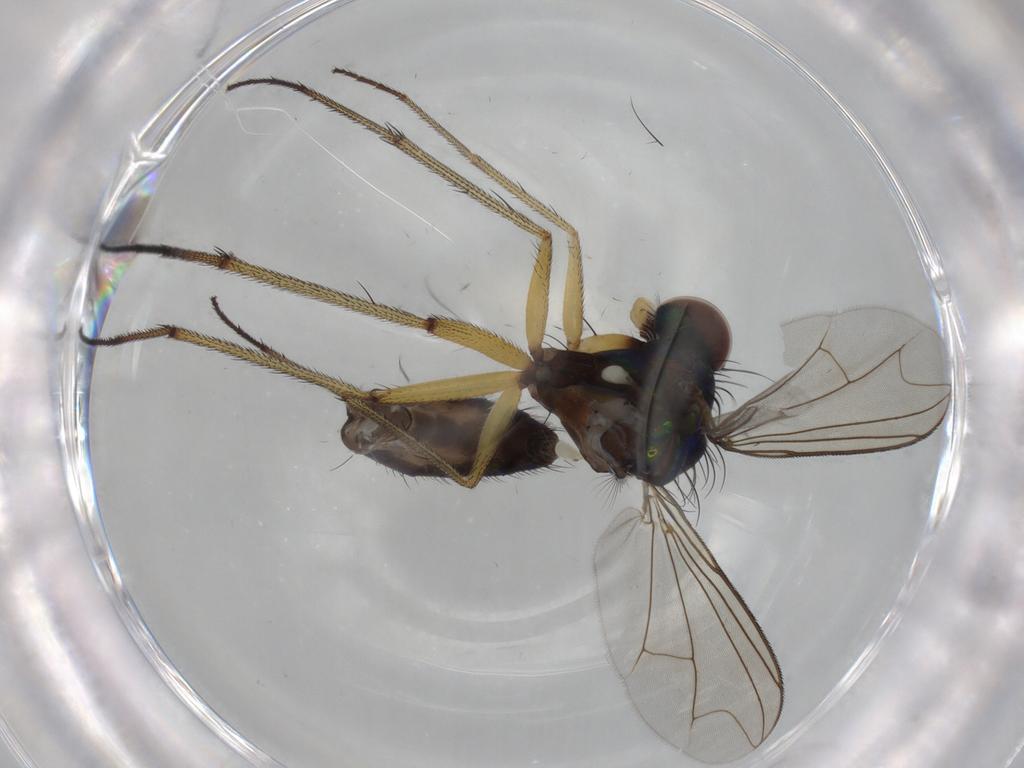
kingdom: Animalia
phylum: Arthropoda
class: Insecta
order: Diptera
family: Dolichopodidae
